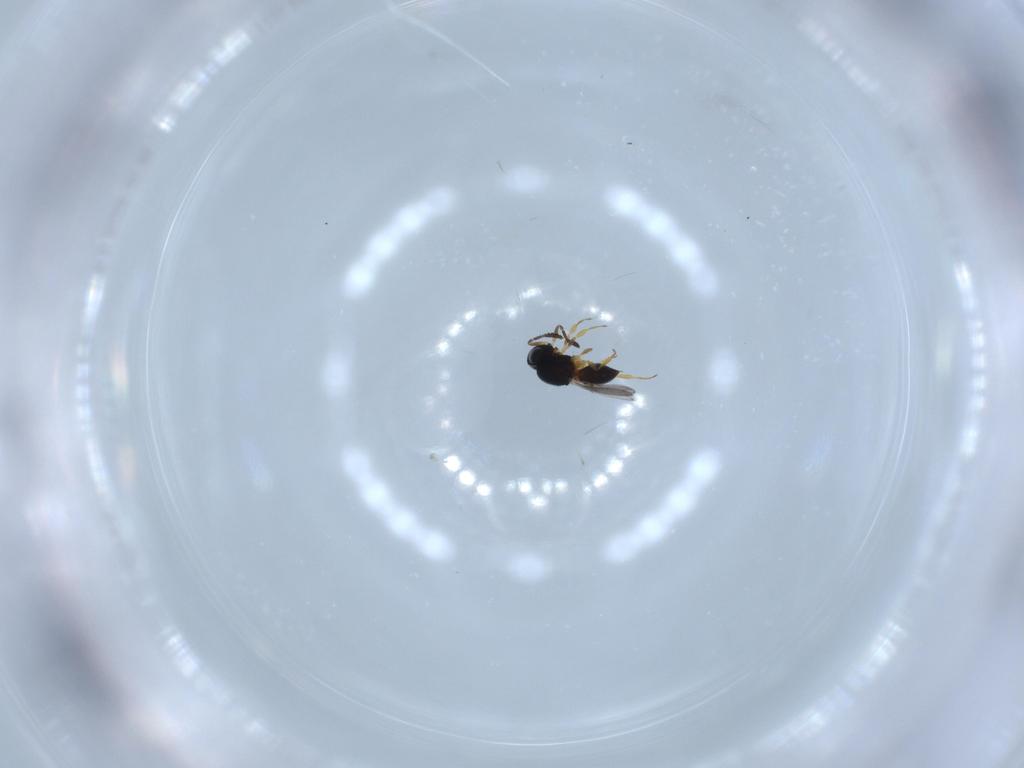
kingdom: Animalia
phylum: Arthropoda
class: Insecta
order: Hymenoptera
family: Scelionidae
